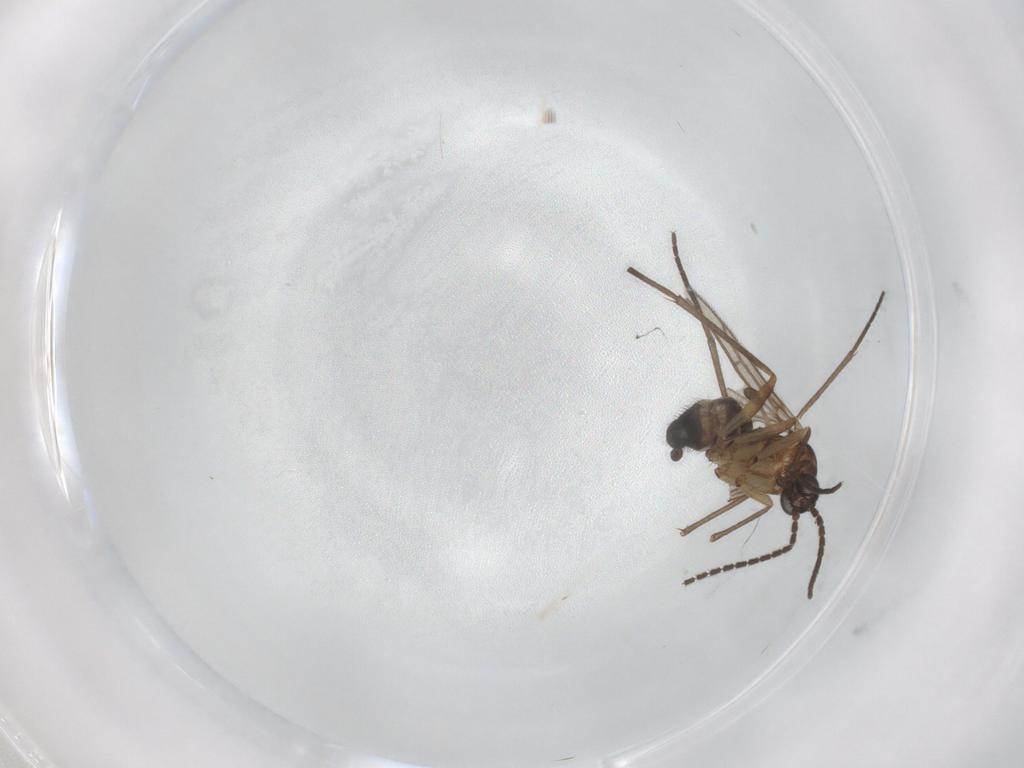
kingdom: Animalia
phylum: Arthropoda
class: Insecta
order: Diptera
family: Sciaridae
